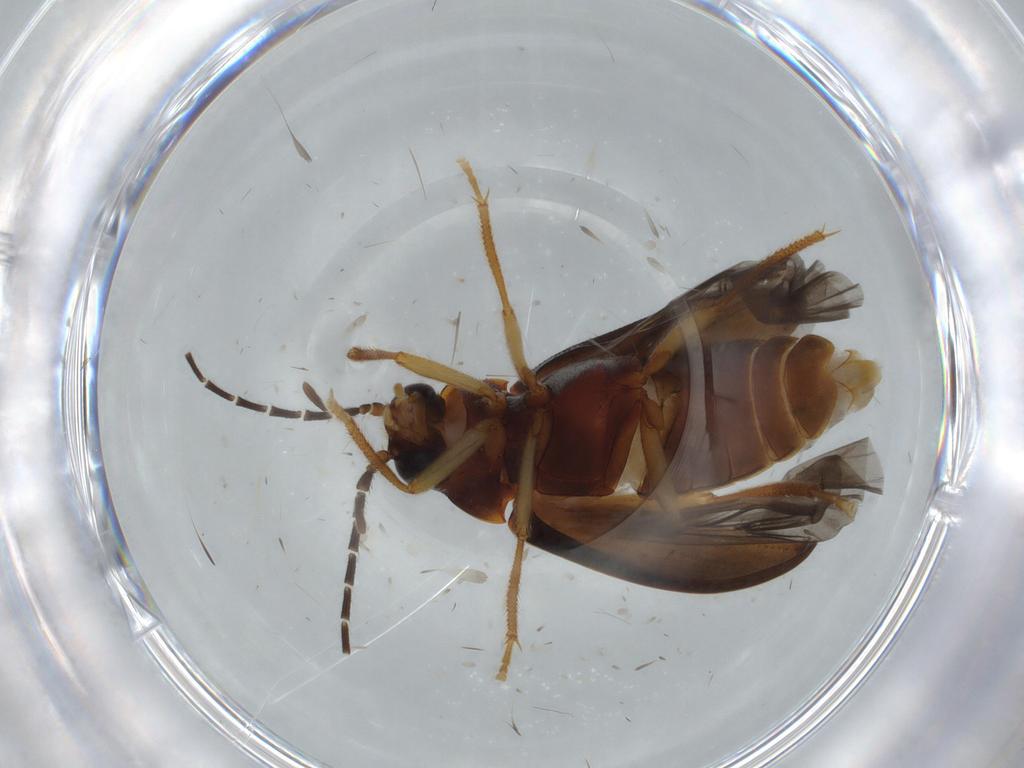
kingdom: Animalia
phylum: Arthropoda
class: Insecta
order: Coleoptera
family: Ptilodactylidae
